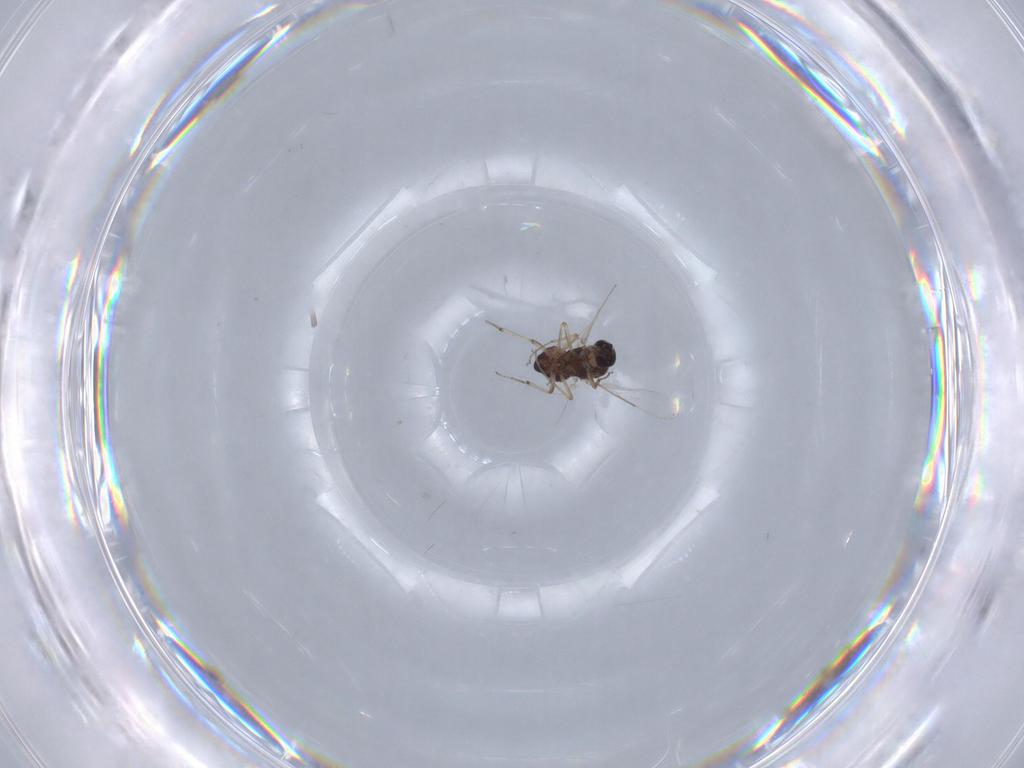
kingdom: Animalia
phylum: Arthropoda
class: Insecta
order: Diptera
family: Ceratopogonidae
